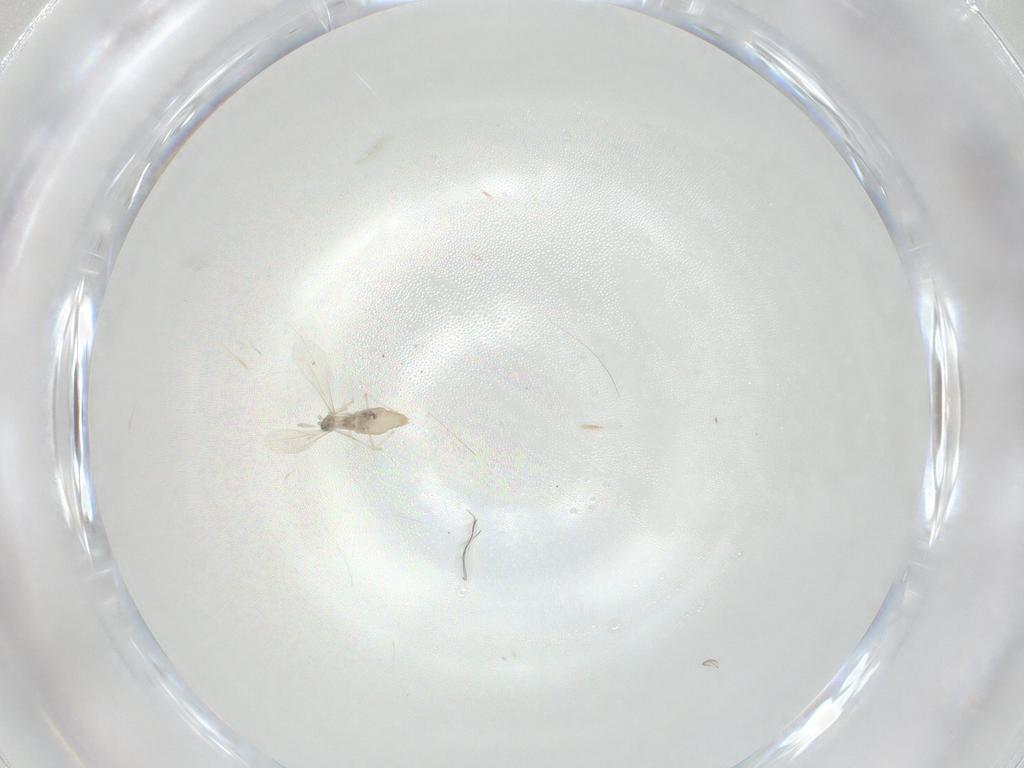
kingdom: Animalia
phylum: Arthropoda
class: Insecta
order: Diptera
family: Cecidomyiidae
